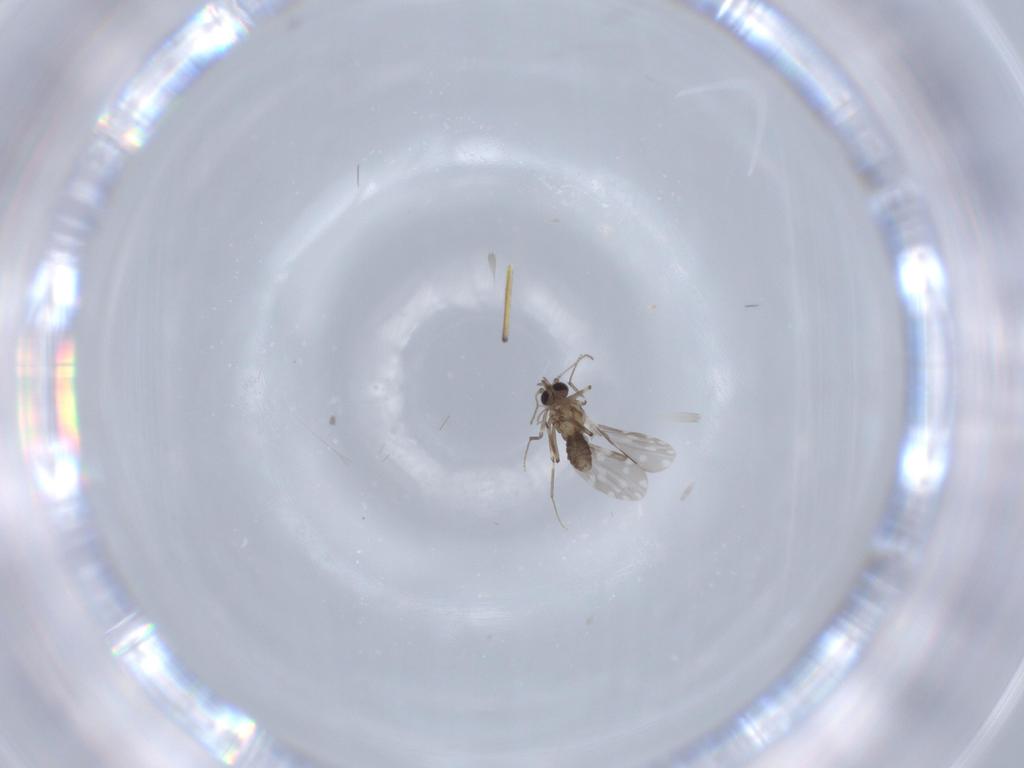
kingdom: Animalia
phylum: Arthropoda
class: Insecta
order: Diptera
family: Ceratopogonidae
